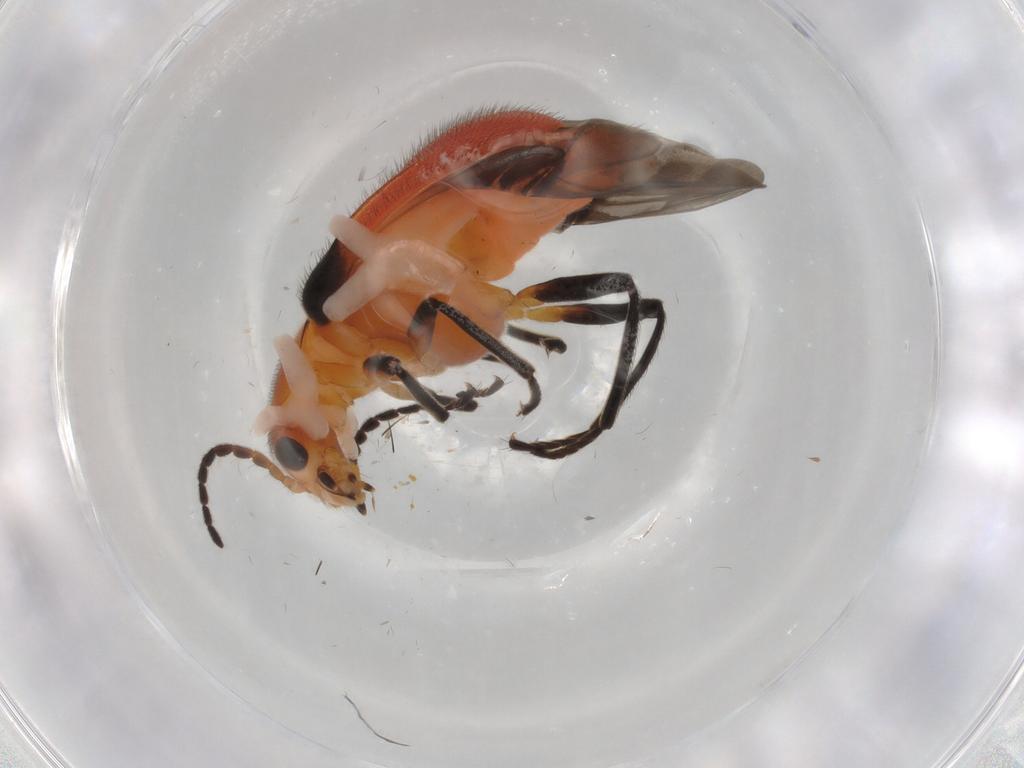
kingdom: Animalia
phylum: Arthropoda
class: Insecta
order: Coleoptera
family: Melyridae
